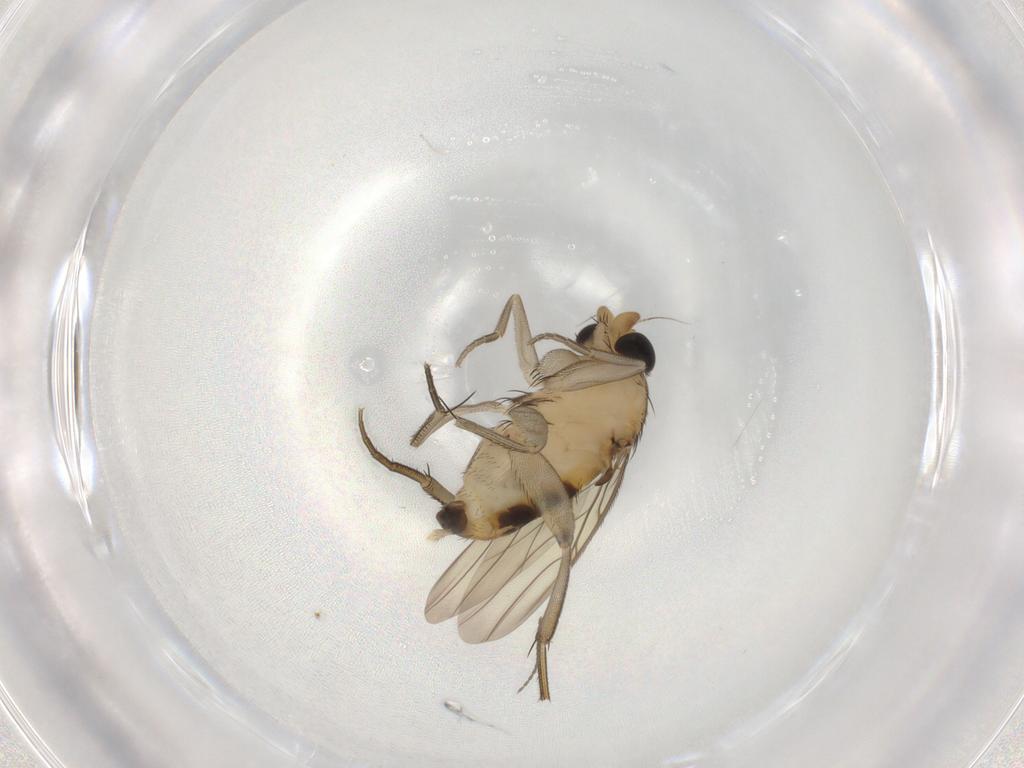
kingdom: Animalia
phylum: Arthropoda
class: Insecta
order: Diptera
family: Phoridae
